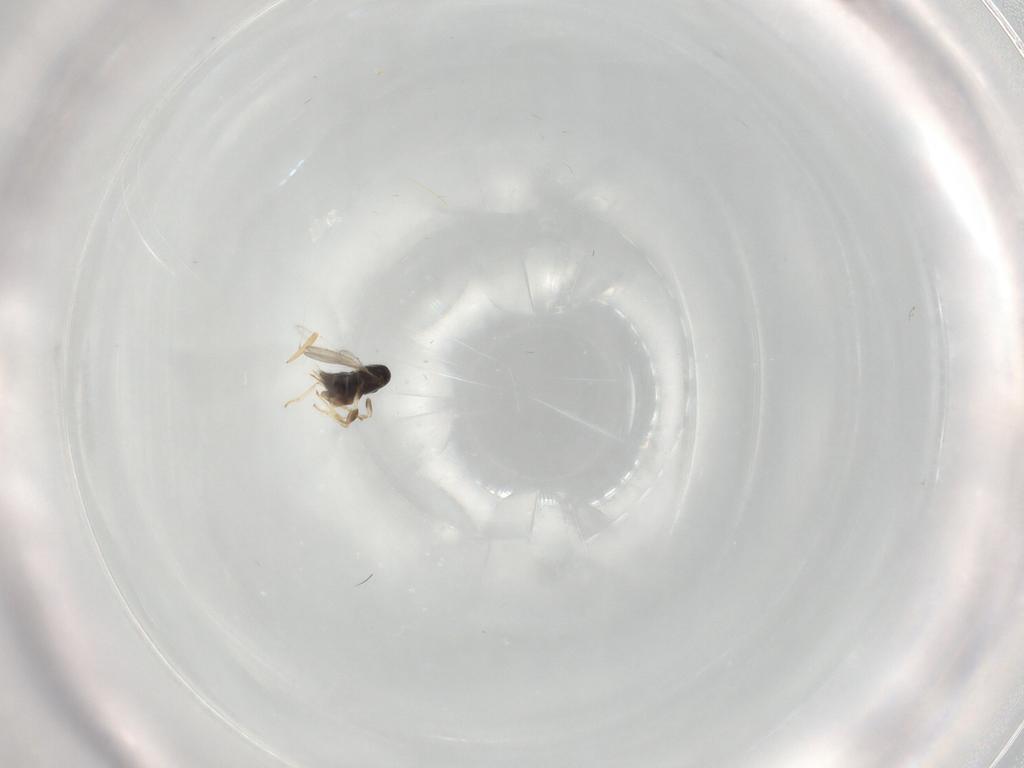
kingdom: Animalia
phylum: Arthropoda
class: Insecta
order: Hymenoptera
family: Aphelinidae
